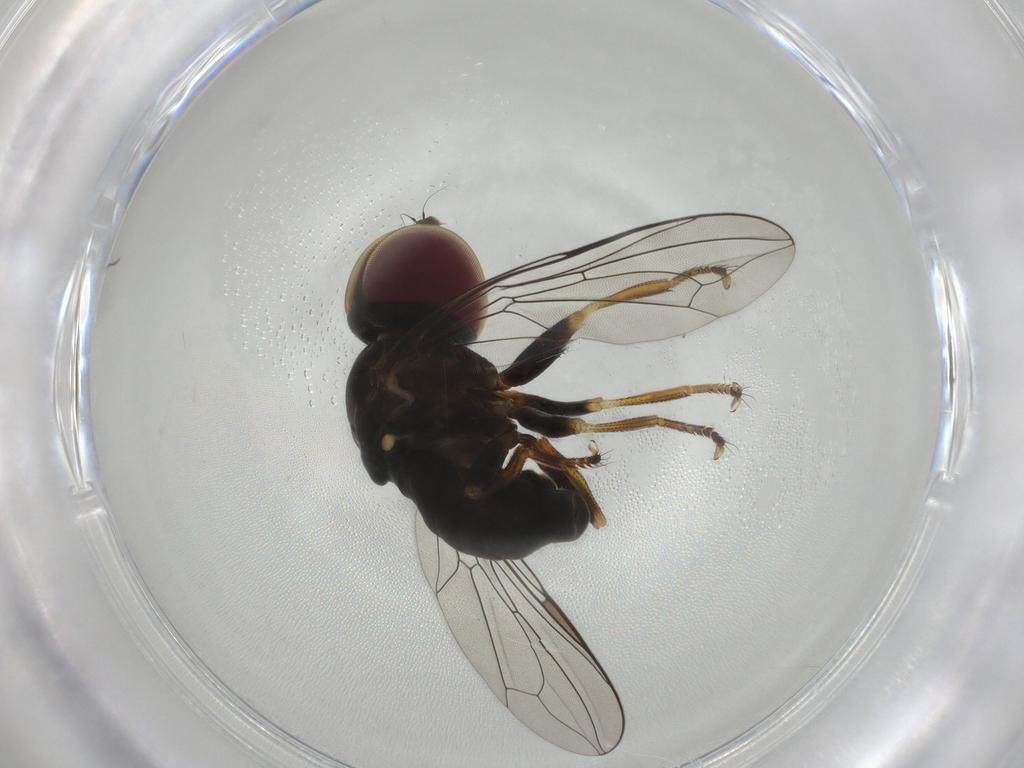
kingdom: Animalia
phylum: Arthropoda
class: Insecta
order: Diptera
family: Pipunculidae
